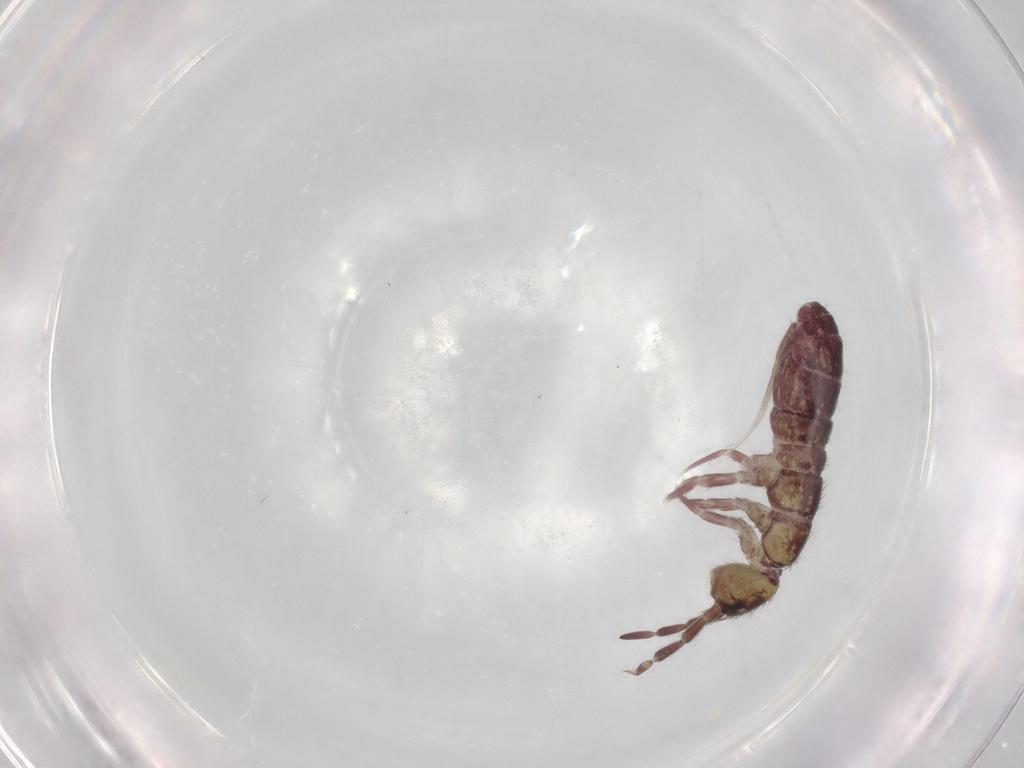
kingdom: Animalia
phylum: Arthropoda
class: Collembola
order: Entomobryomorpha
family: Isotomidae
